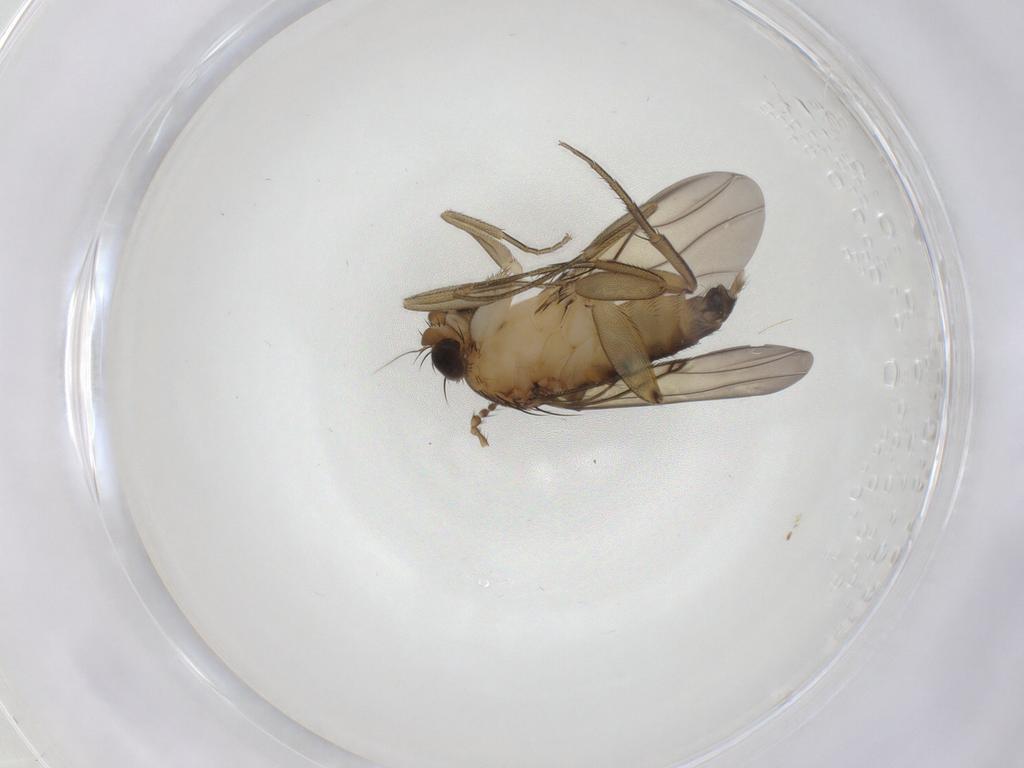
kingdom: Animalia
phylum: Arthropoda
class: Insecta
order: Diptera
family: Phoridae
